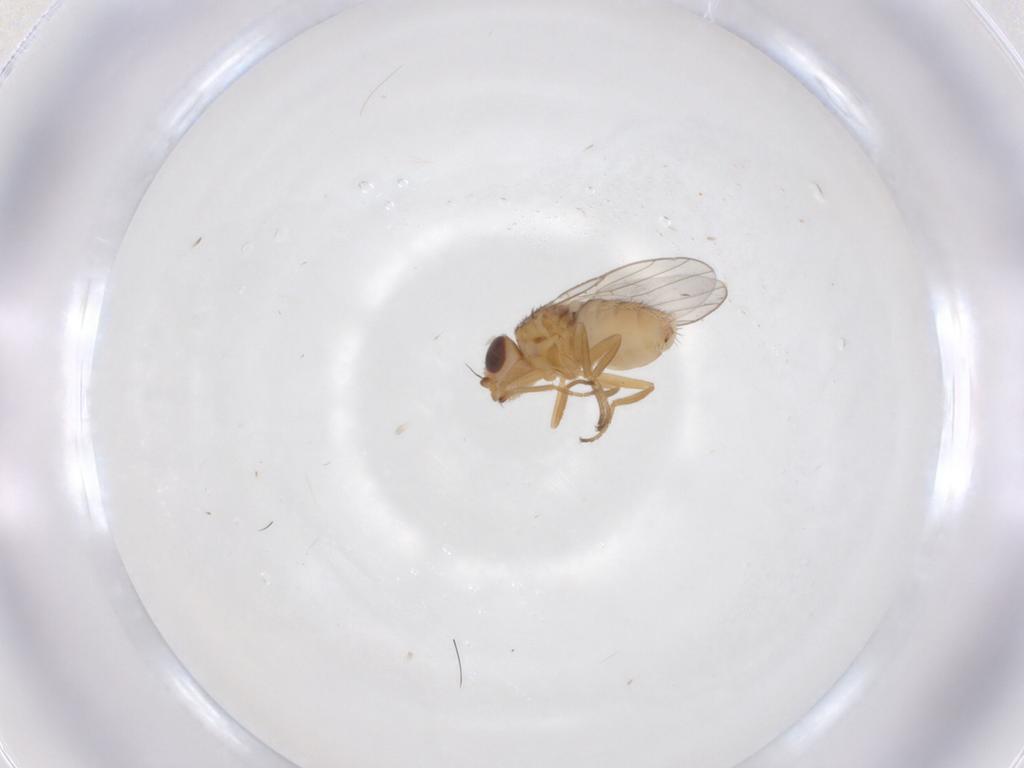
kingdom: Animalia
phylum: Arthropoda
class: Insecta
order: Diptera
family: Chloropidae
